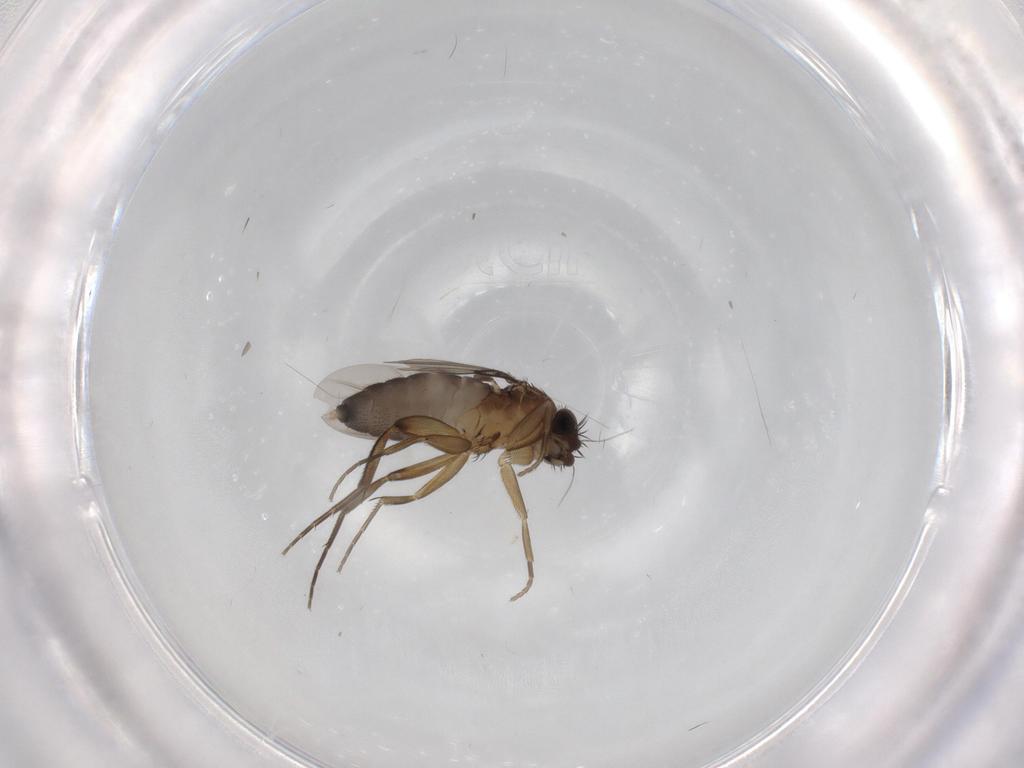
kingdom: Animalia
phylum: Arthropoda
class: Insecta
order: Diptera
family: Phoridae
